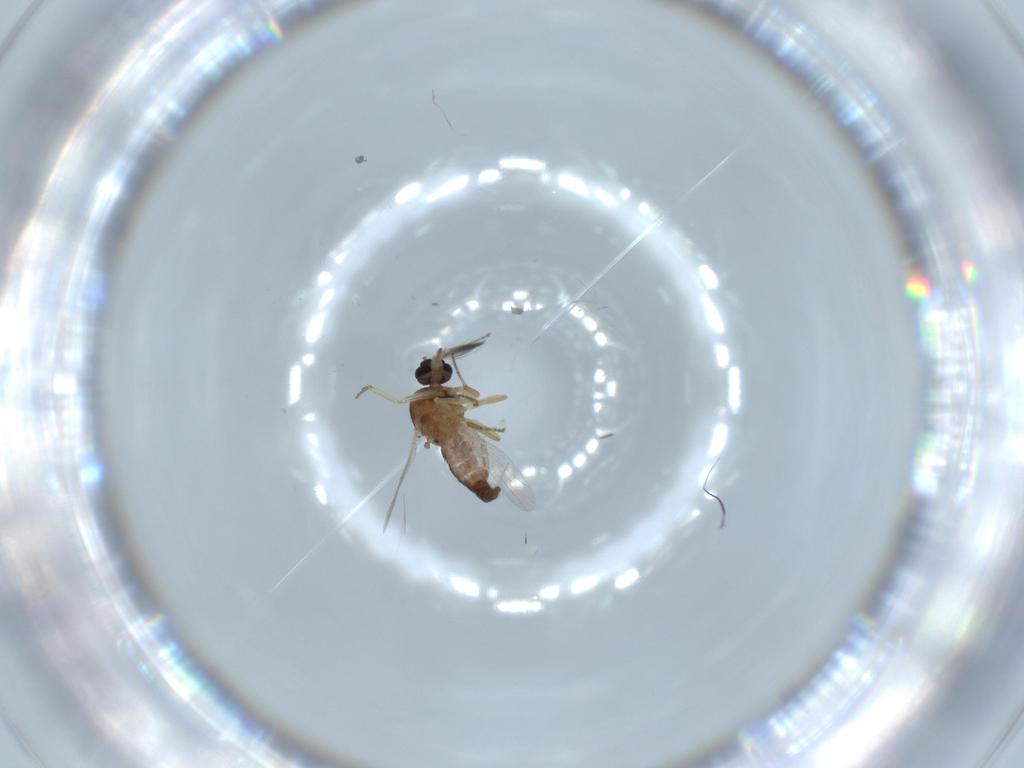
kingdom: Animalia
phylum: Arthropoda
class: Insecta
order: Diptera
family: Ceratopogonidae
